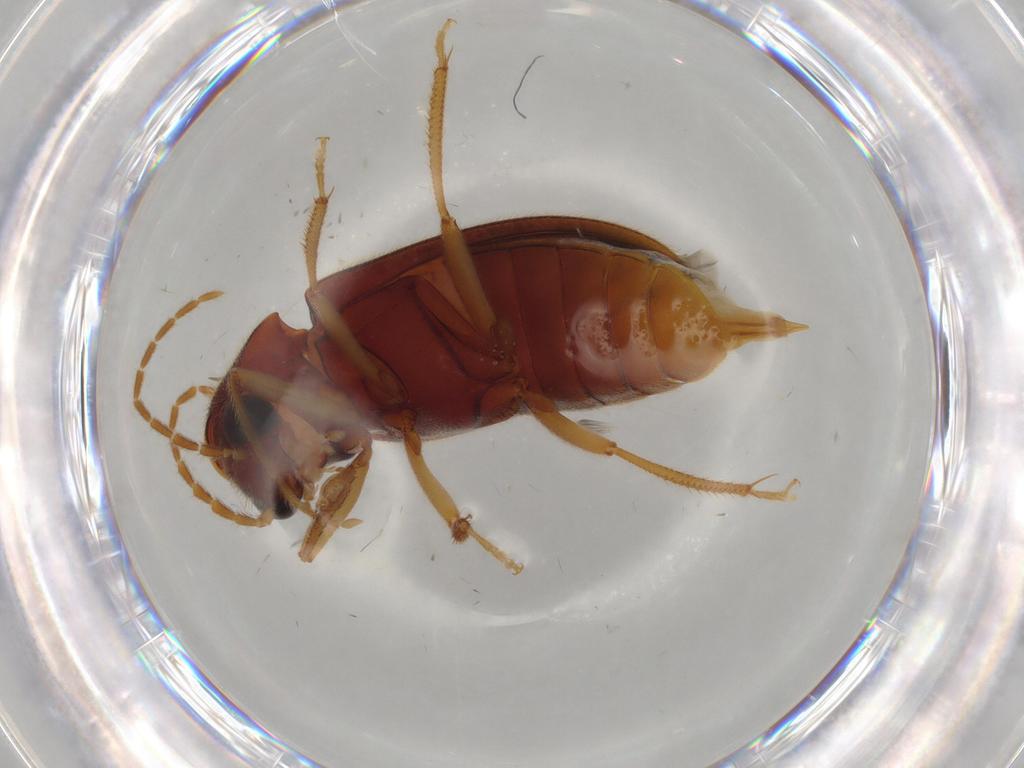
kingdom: Animalia
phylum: Arthropoda
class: Insecta
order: Coleoptera
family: Ptilodactylidae
